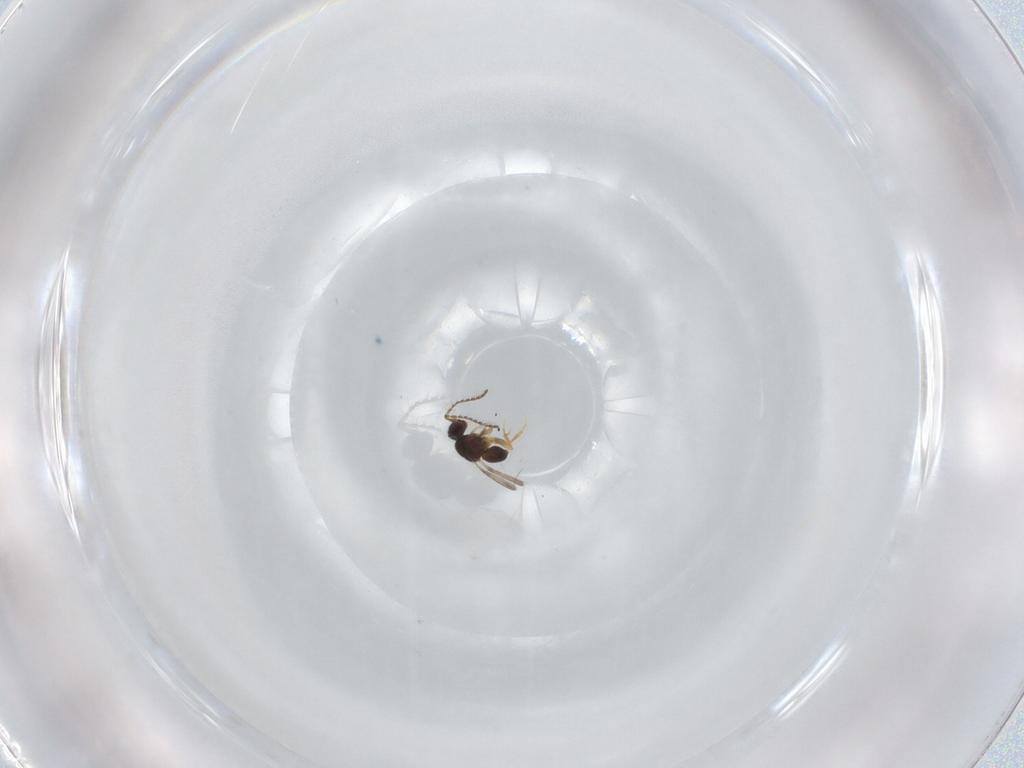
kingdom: Animalia
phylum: Arthropoda
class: Insecta
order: Hymenoptera
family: Ceraphronidae
